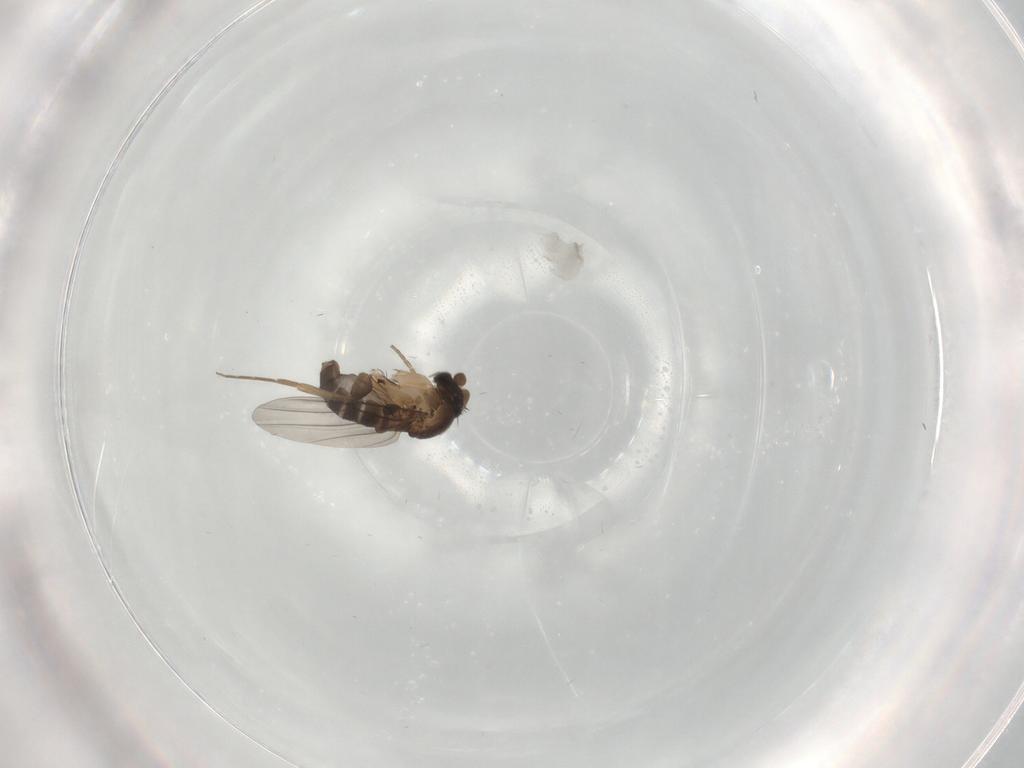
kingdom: Animalia
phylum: Arthropoda
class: Insecta
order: Diptera
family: Phoridae
